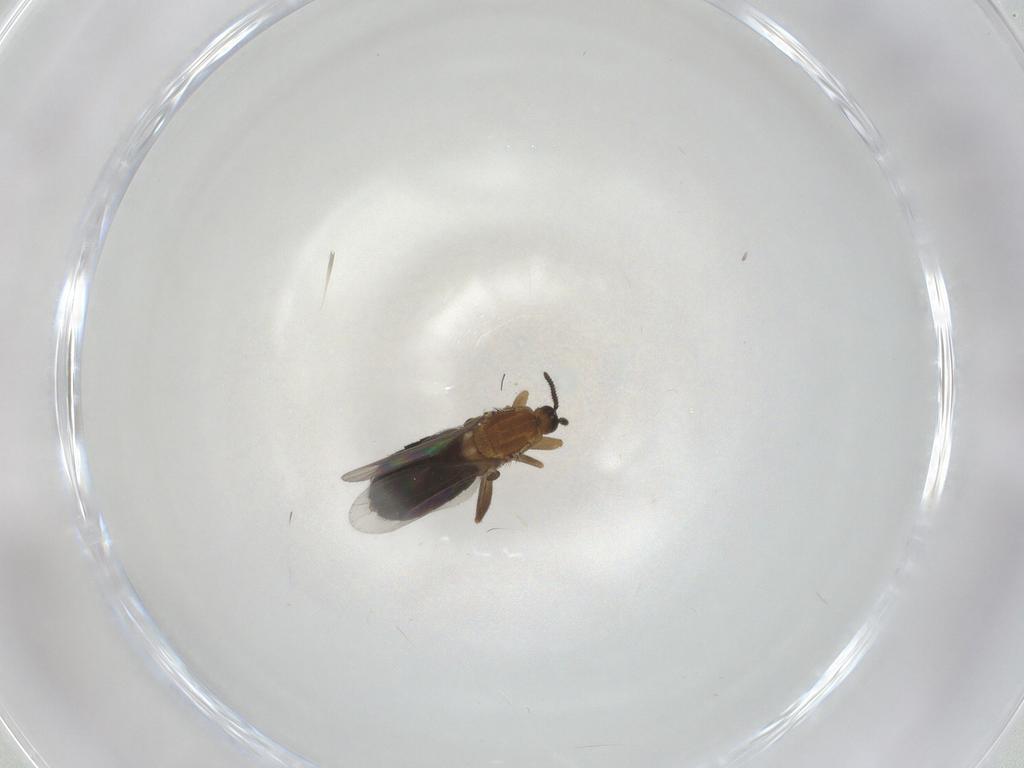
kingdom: Animalia
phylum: Arthropoda
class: Insecta
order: Diptera
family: Scatopsidae
